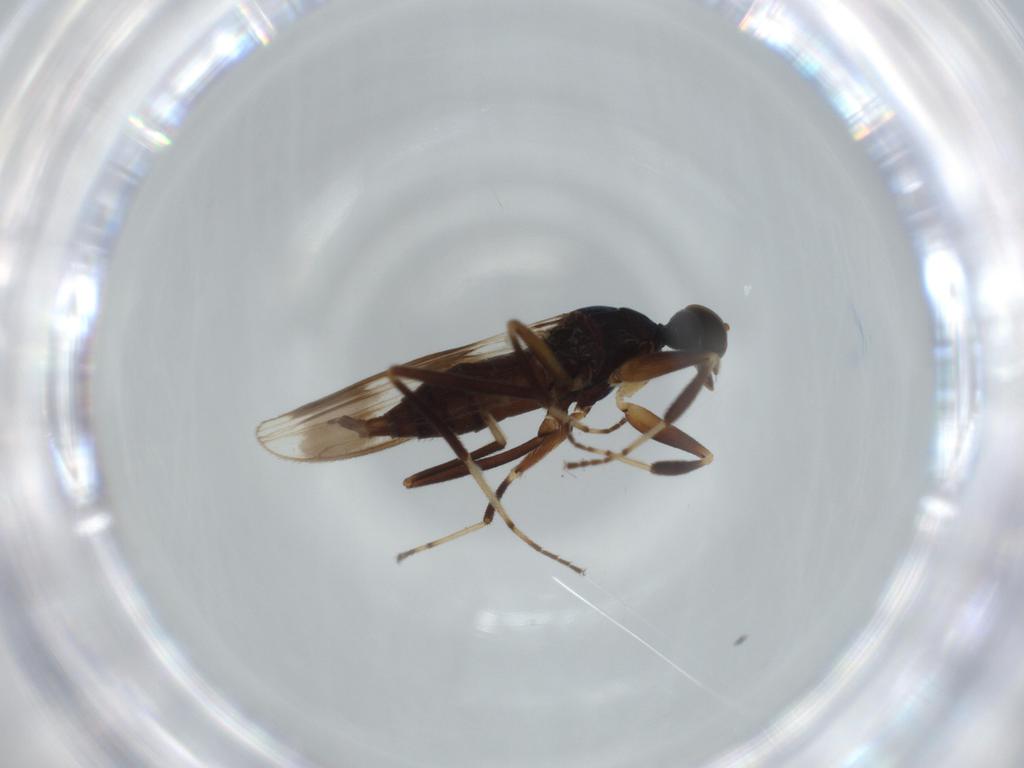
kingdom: Animalia
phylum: Arthropoda
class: Insecta
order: Diptera
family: Hybotidae
